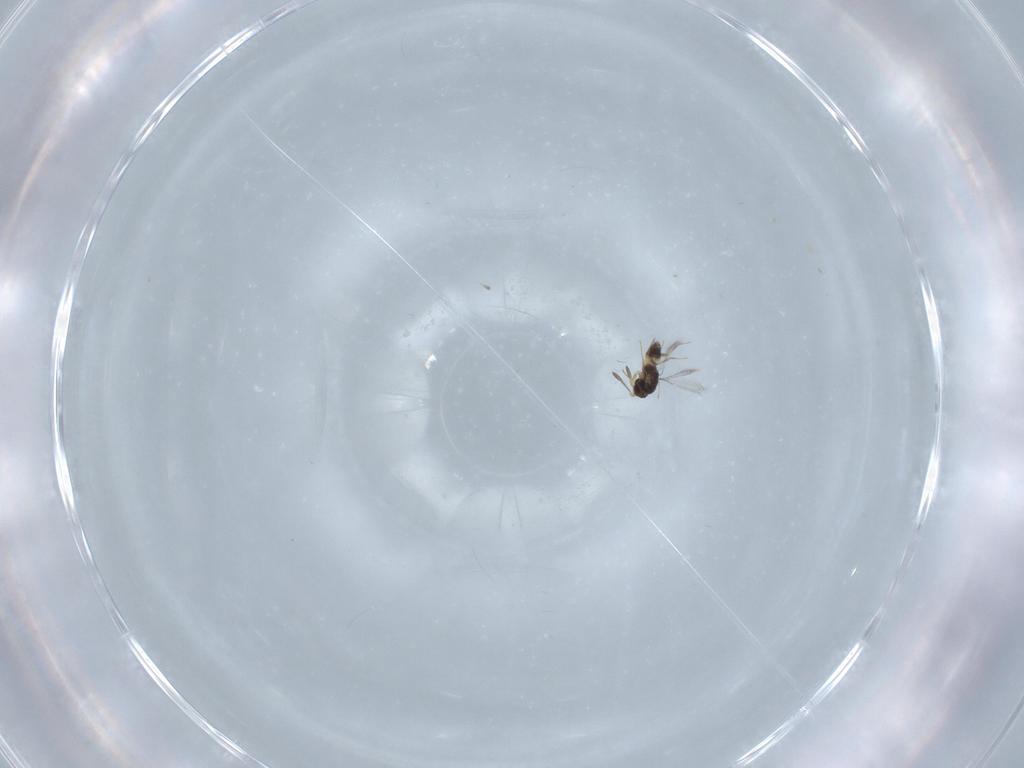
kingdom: Animalia
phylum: Arthropoda
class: Insecta
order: Hymenoptera
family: Mymaridae
